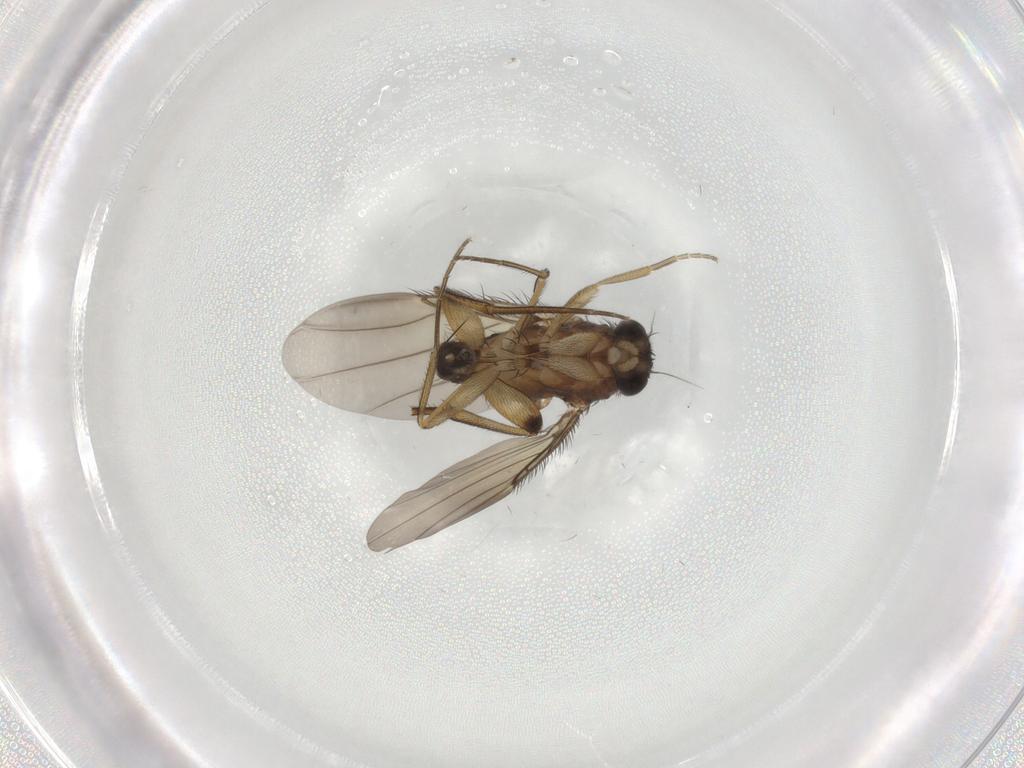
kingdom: Animalia
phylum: Arthropoda
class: Insecta
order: Diptera
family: Phoridae
